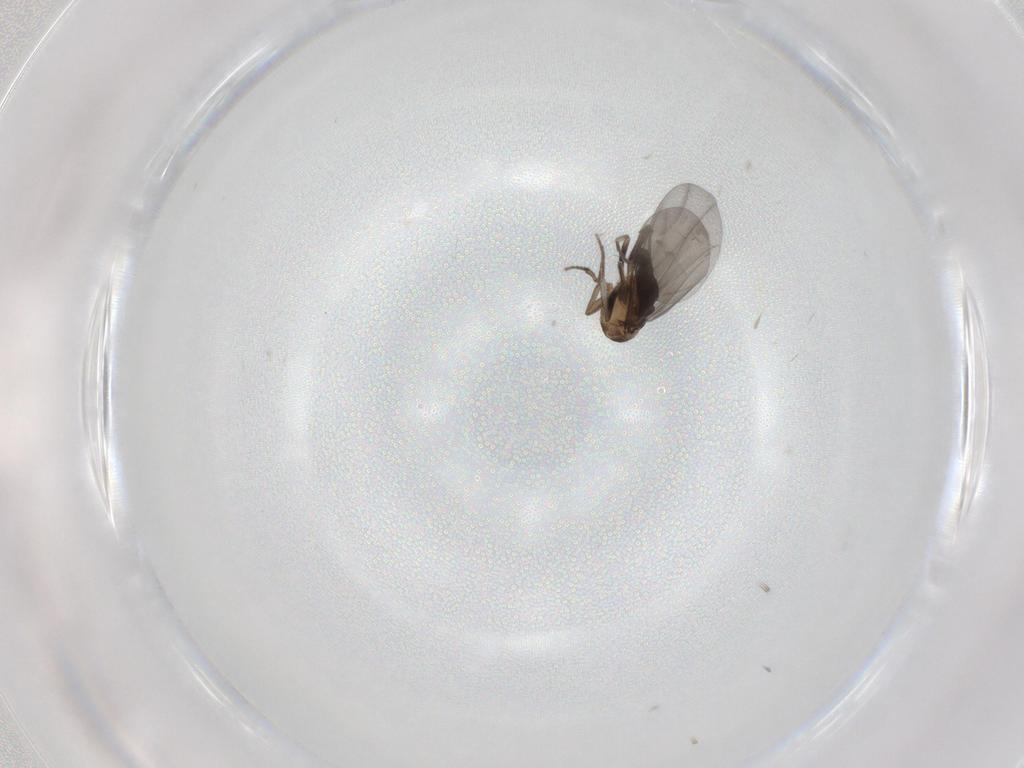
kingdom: Animalia
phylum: Arthropoda
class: Insecta
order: Diptera
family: Phoridae
